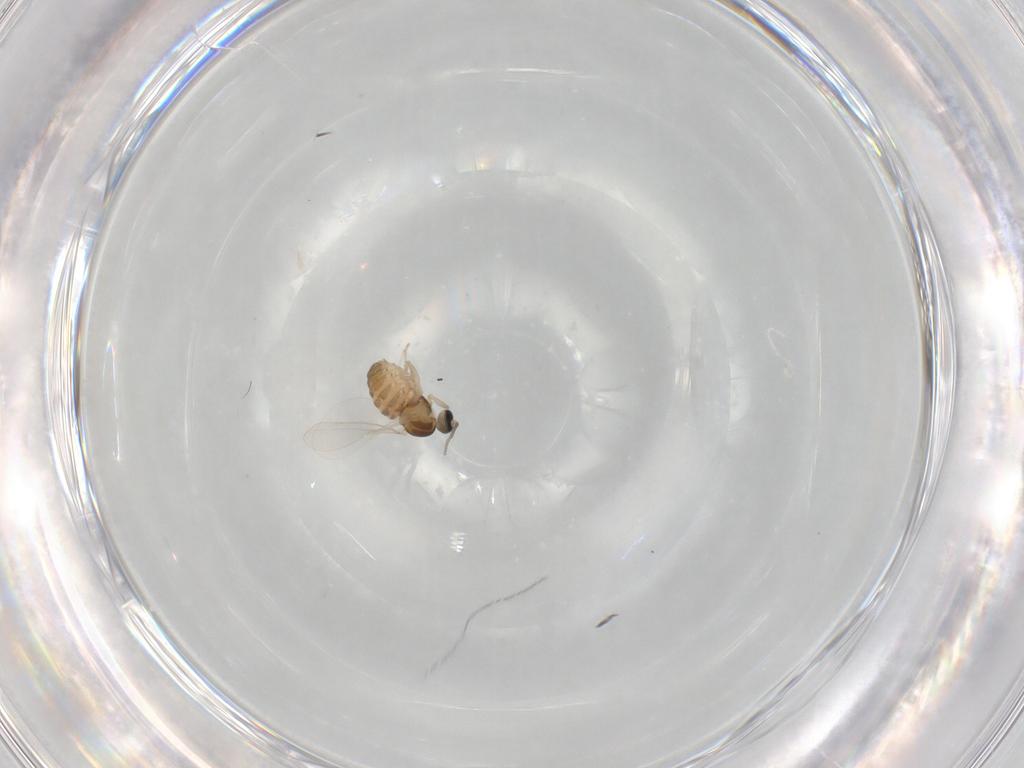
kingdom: Animalia
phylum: Arthropoda
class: Insecta
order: Diptera
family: Cecidomyiidae
